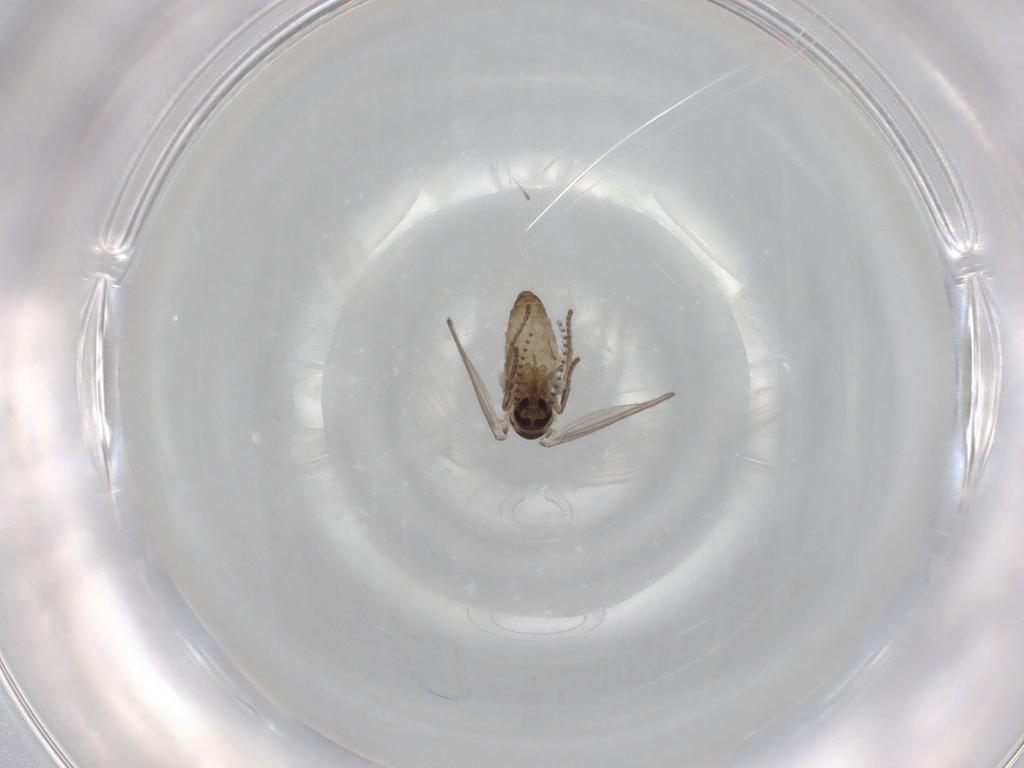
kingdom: Animalia
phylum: Arthropoda
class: Insecta
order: Diptera
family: Psychodidae
